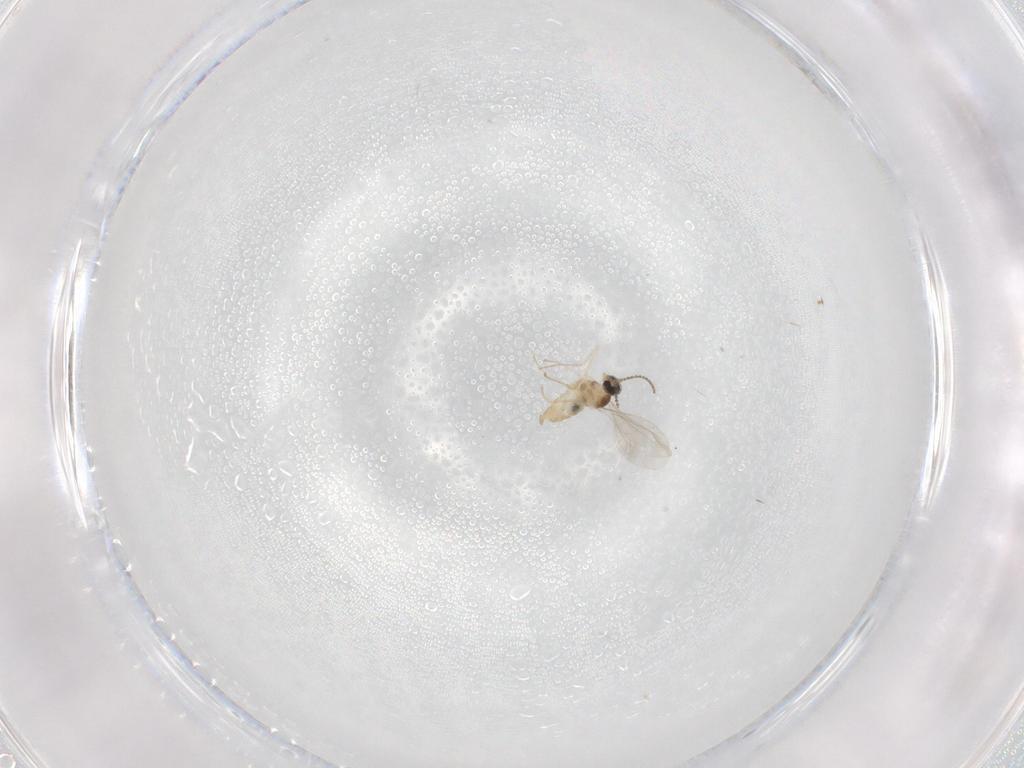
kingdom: Animalia
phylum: Arthropoda
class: Insecta
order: Diptera
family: Cecidomyiidae
